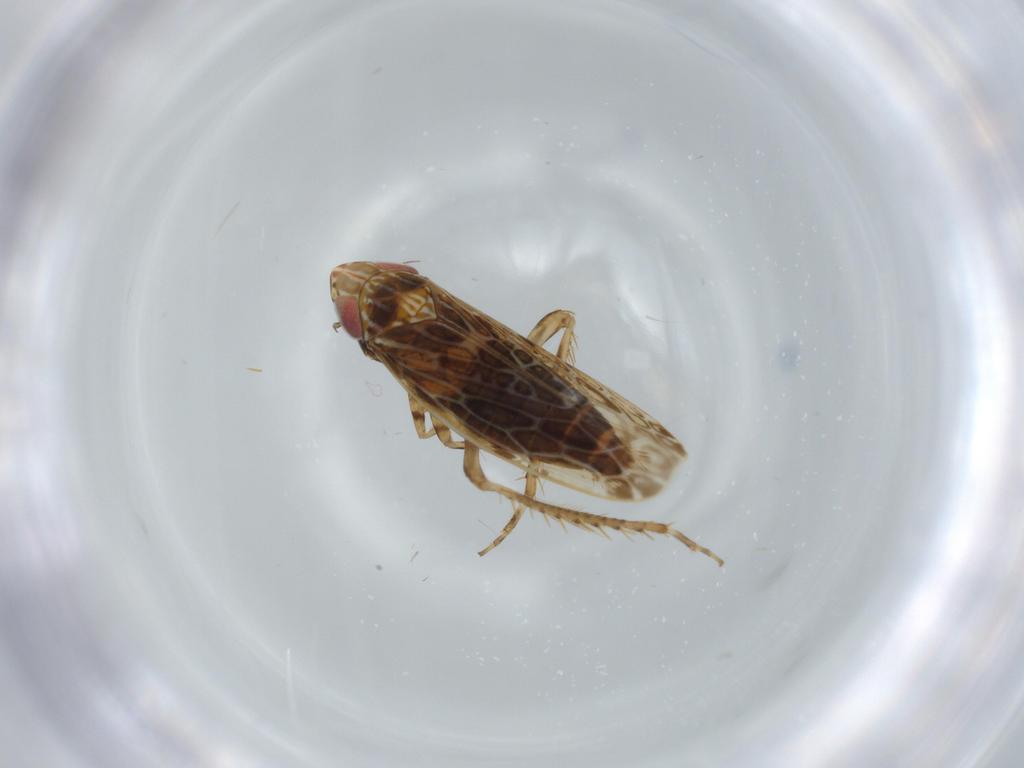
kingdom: Animalia
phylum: Arthropoda
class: Insecta
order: Hemiptera
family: Cicadellidae
